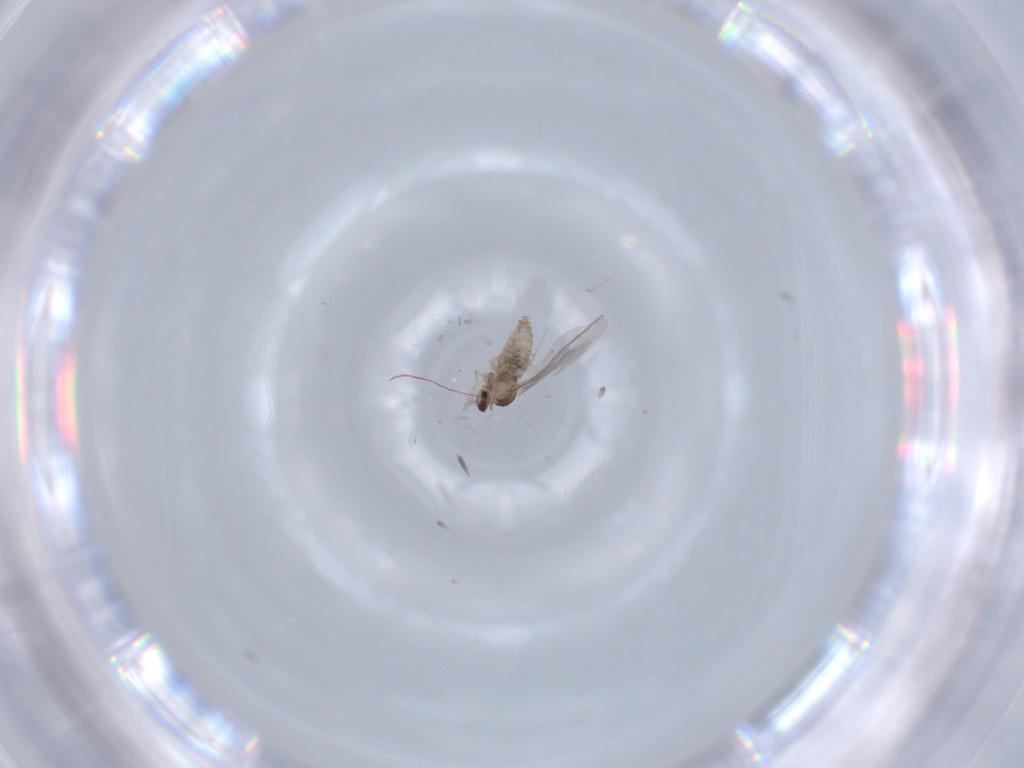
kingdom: Animalia
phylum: Arthropoda
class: Insecta
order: Diptera
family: Cecidomyiidae
